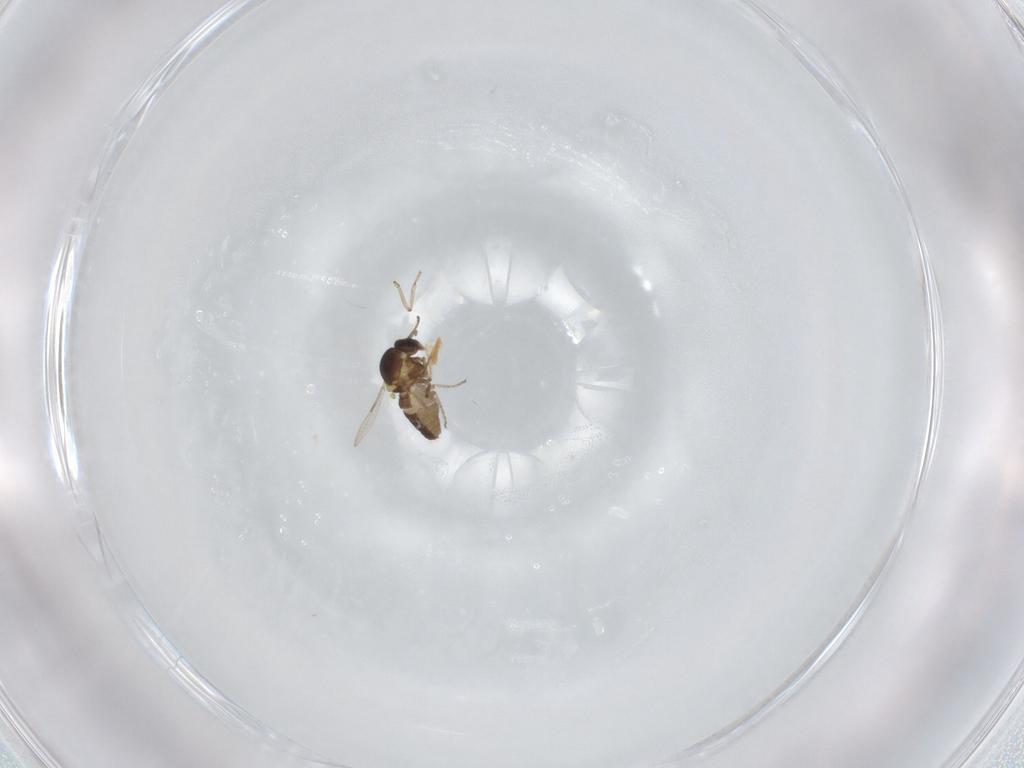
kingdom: Animalia
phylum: Arthropoda
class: Insecta
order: Diptera
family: Ceratopogonidae
